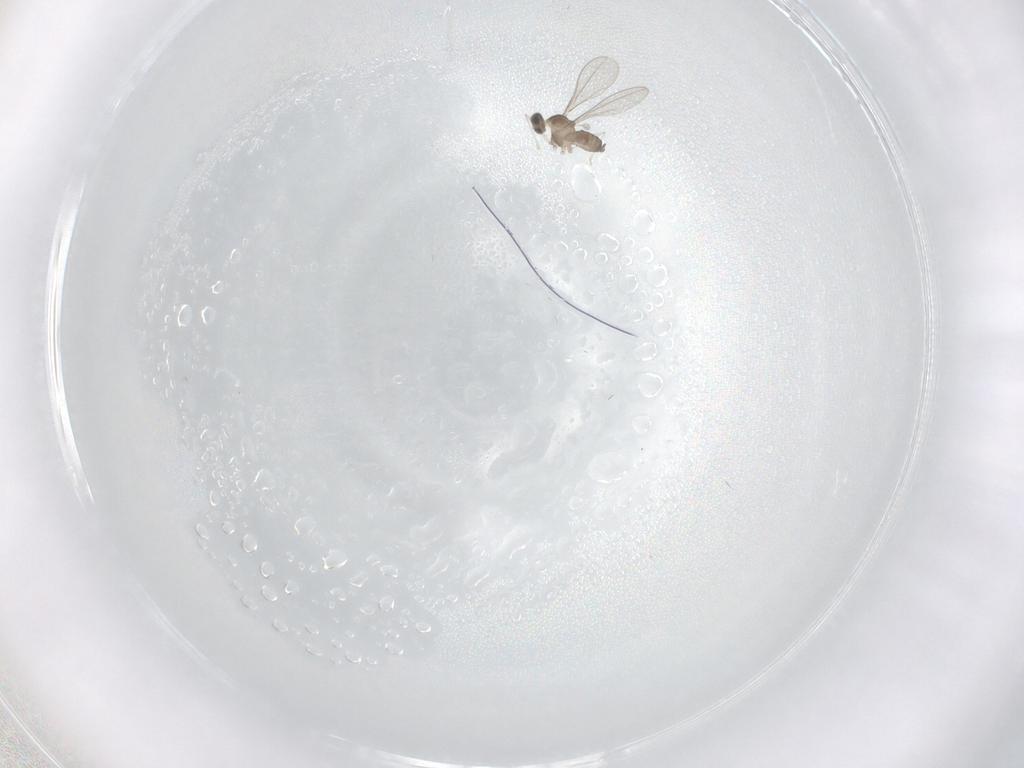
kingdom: Animalia
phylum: Arthropoda
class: Insecta
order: Diptera
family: Cecidomyiidae
